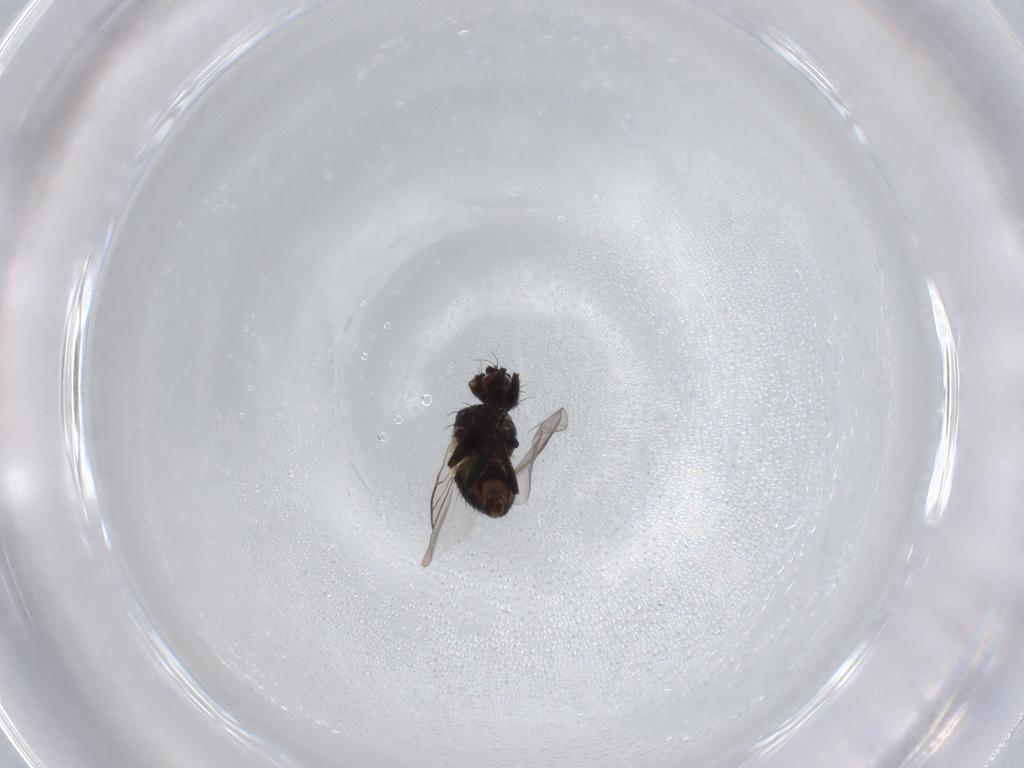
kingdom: Animalia
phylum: Arthropoda
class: Insecta
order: Diptera
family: Agromyzidae
